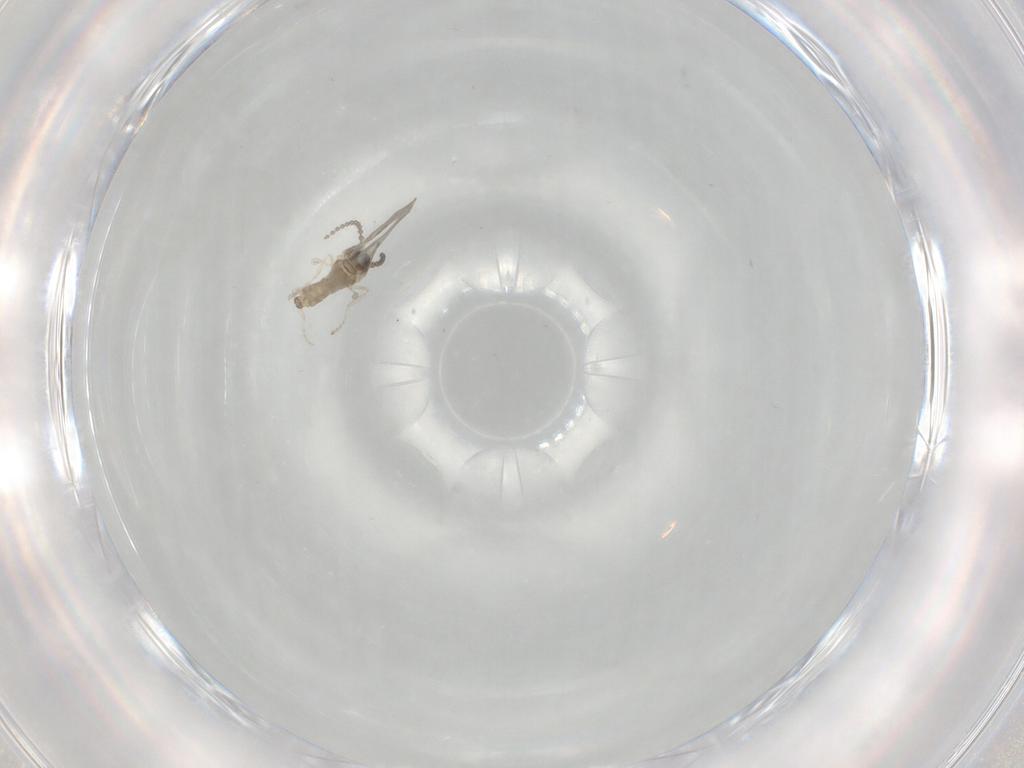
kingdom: Animalia
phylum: Arthropoda
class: Insecta
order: Diptera
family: Cecidomyiidae
